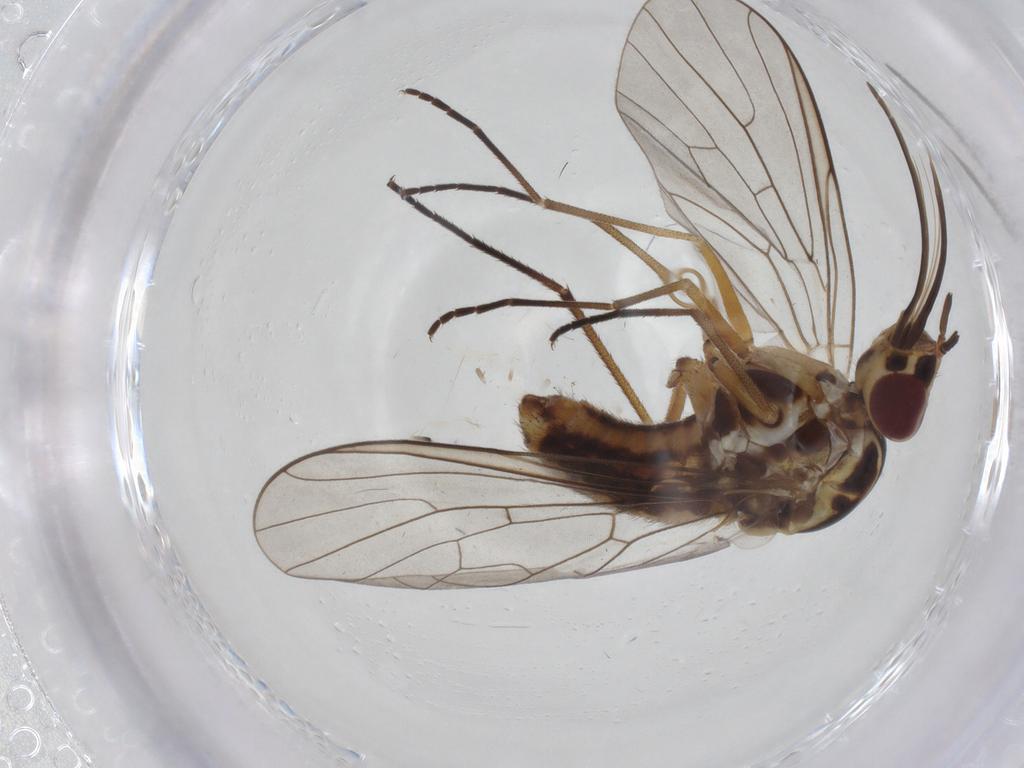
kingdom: Animalia
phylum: Arthropoda
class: Insecta
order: Diptera
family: Bombyliidae
